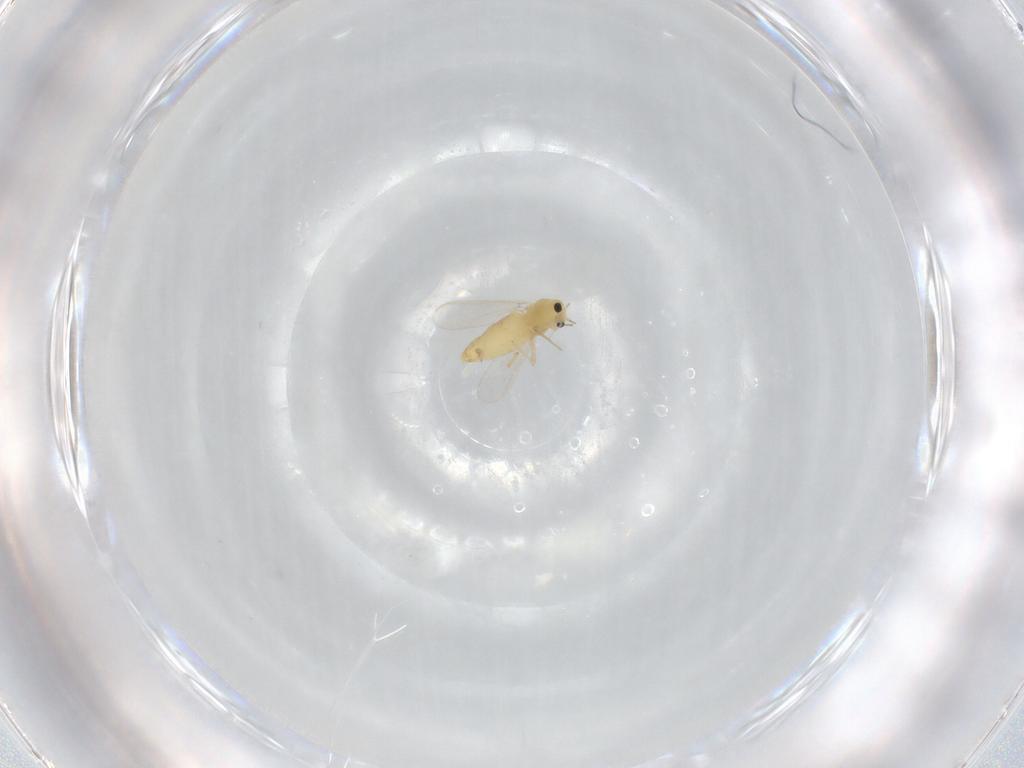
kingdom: Animalia
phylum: Arthropoda
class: Insecta
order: Diptera
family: Chironomidae
